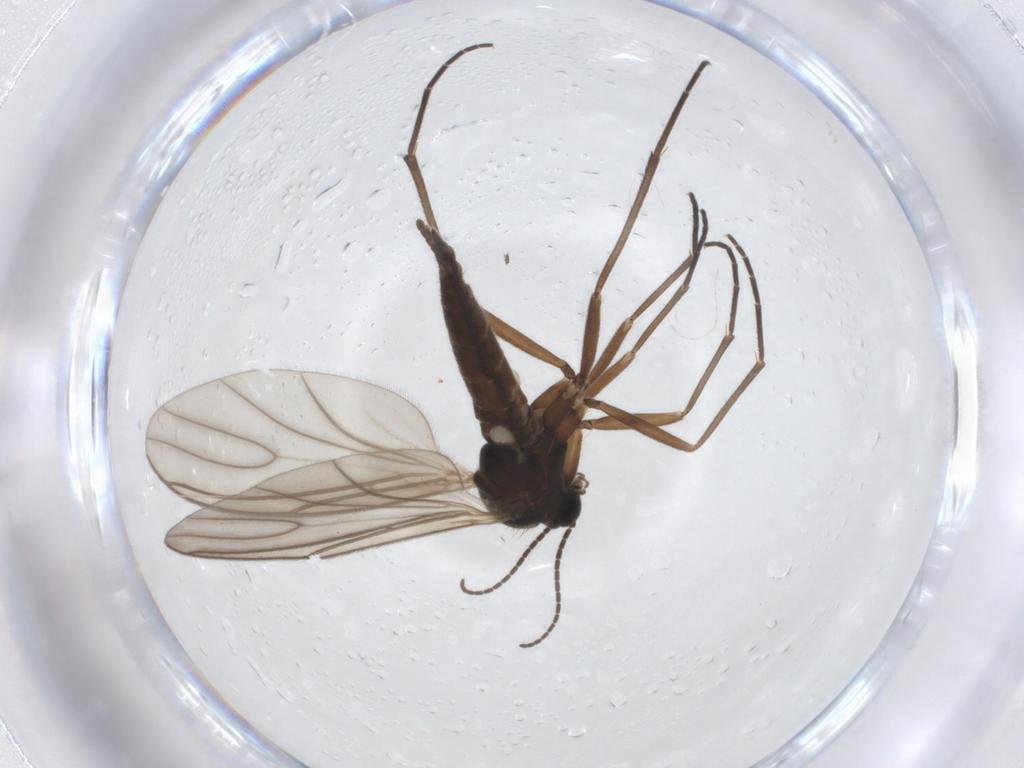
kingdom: Animalia
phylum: Arthropoda
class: Insecta
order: Diptera
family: Sciaridae
